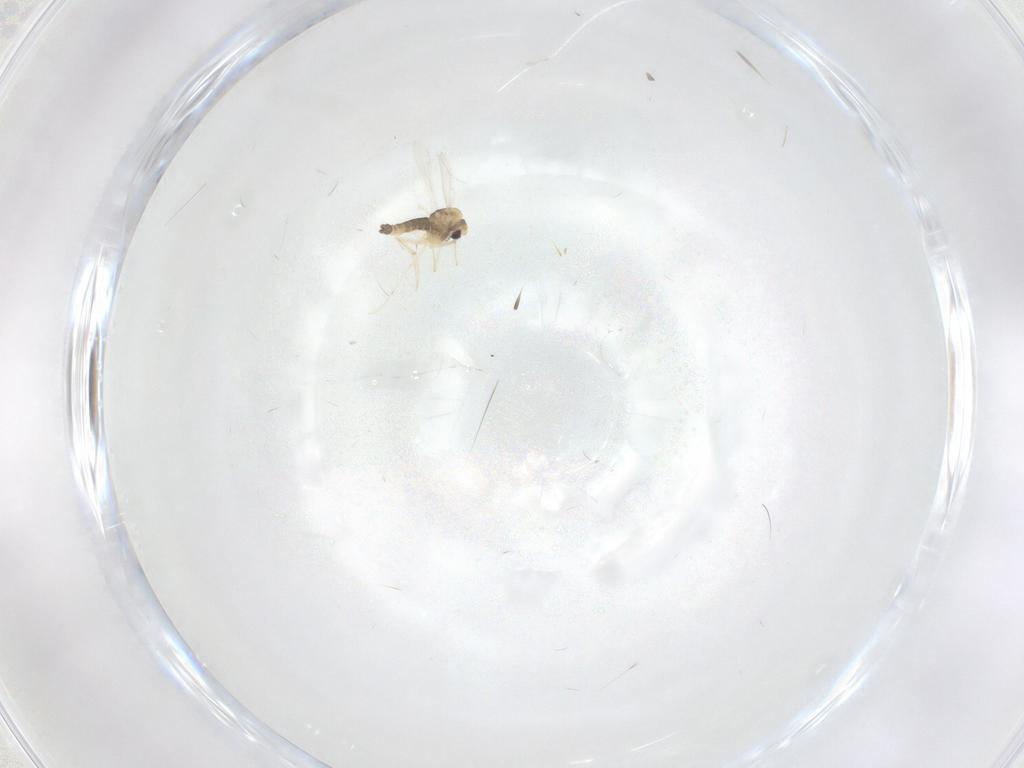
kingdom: Animalia
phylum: Arthropoda
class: Insecta
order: Diptera
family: Cecidomyiidae
